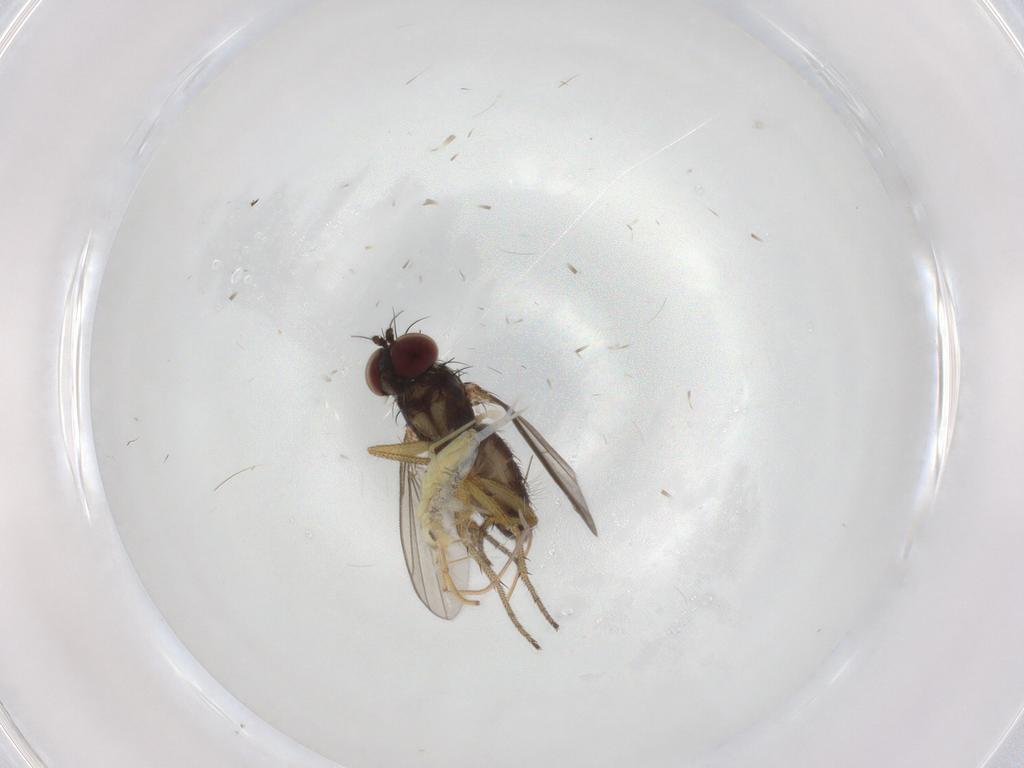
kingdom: Animalia
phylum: Arthropoda
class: Insecta
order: Diptera
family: Dolichopodidae
